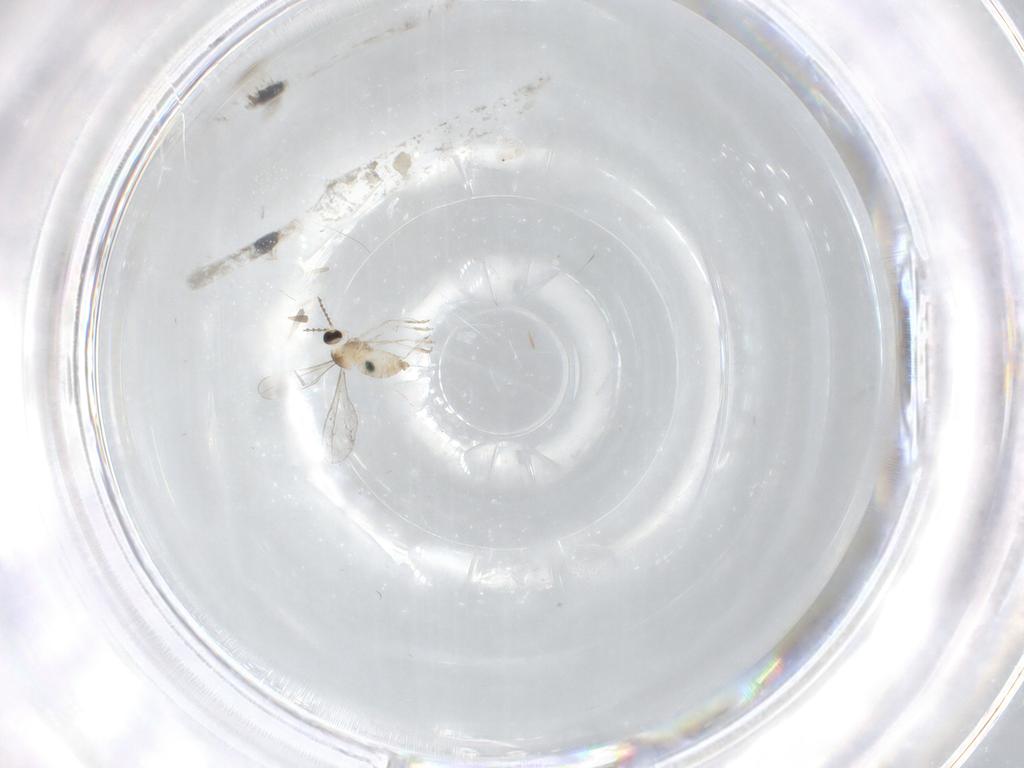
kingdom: Animalia
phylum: Arthropoda
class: Insecta
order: Diptera
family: Cecidomyiidae
